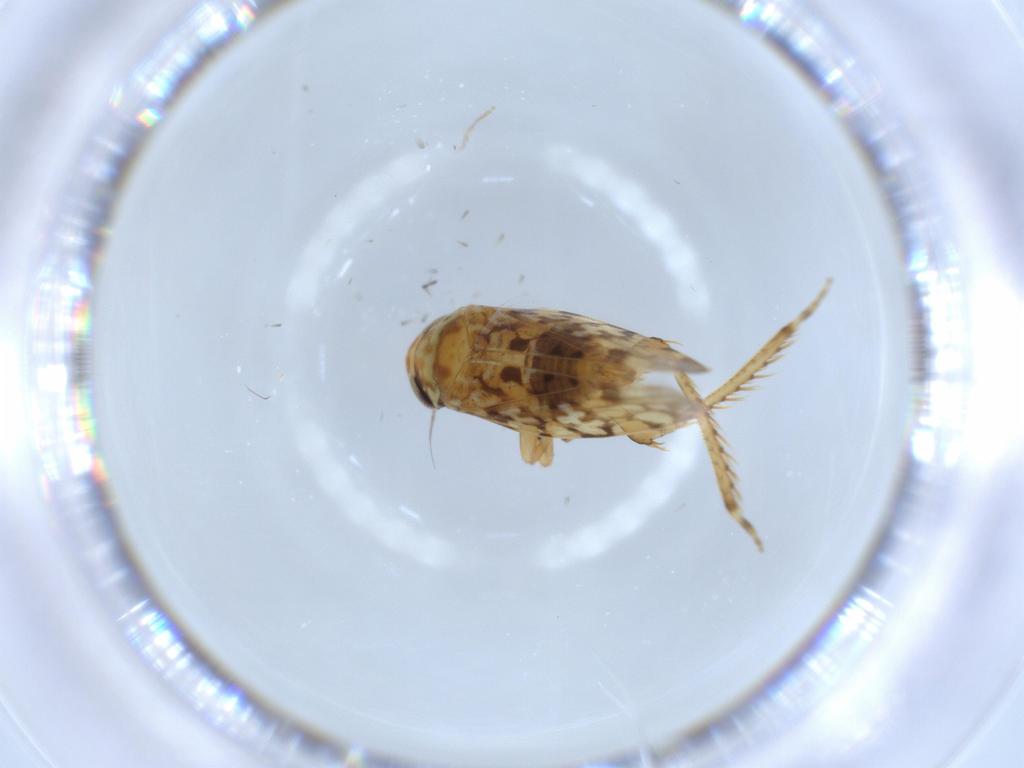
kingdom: Animalia
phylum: Arthropoda
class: Insecta
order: Hemiptera
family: Cicadellidae
